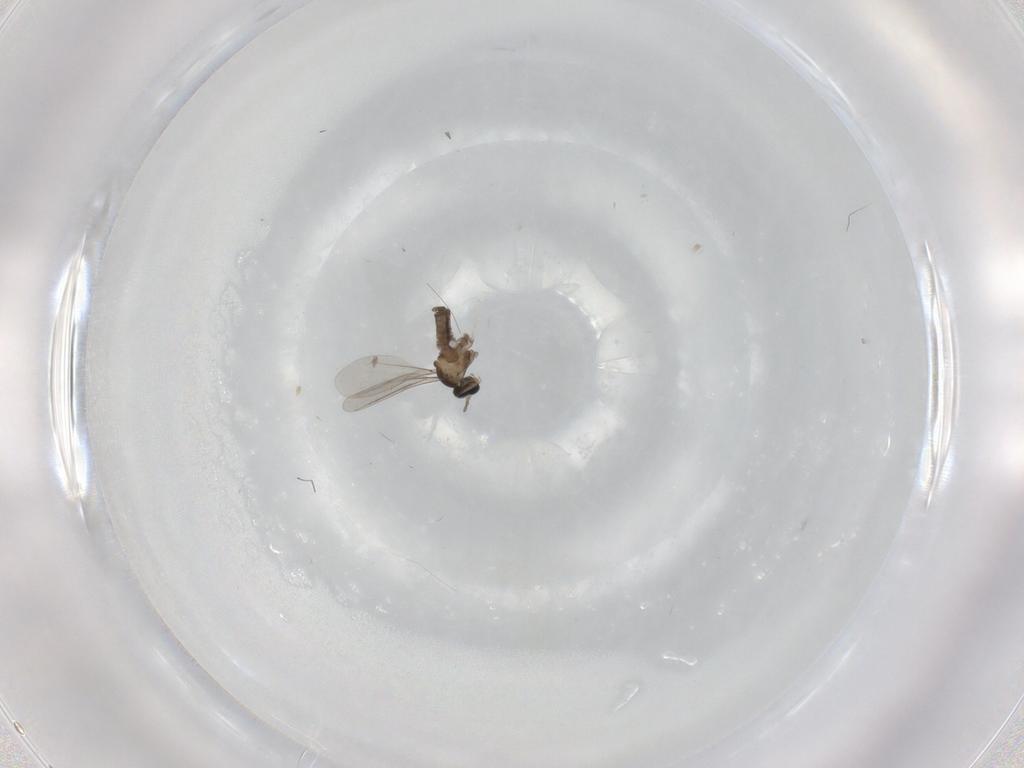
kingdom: Animalia
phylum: Arthropoda
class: Insecta
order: Diptera
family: Cecidomyiidae
